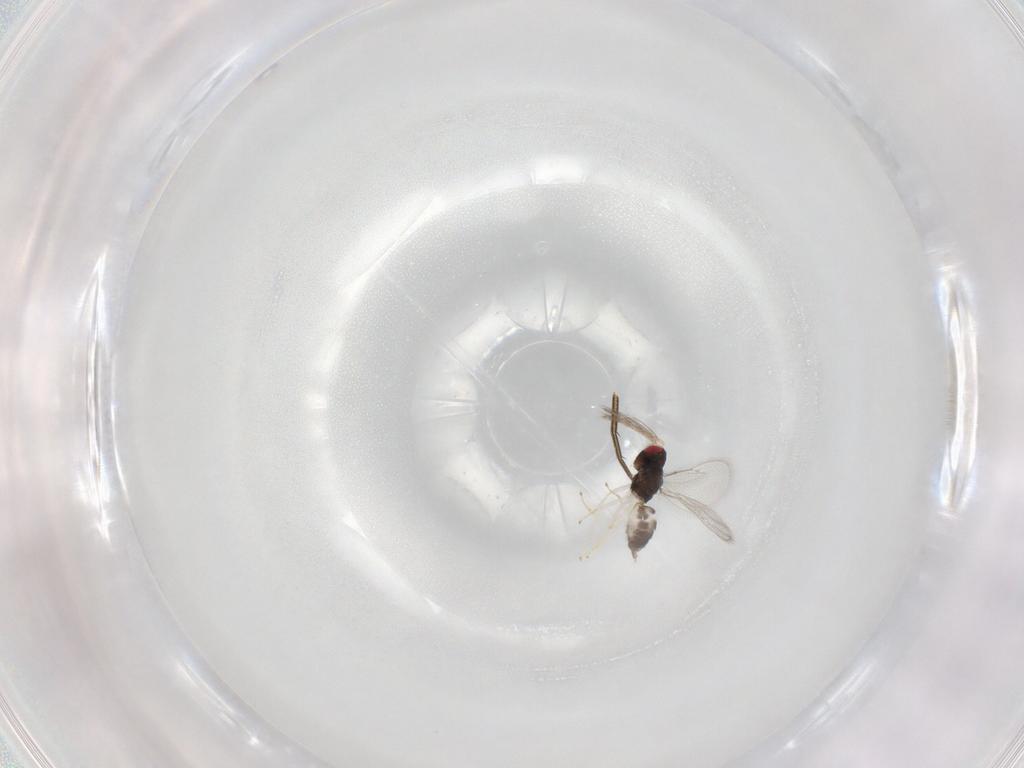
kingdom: Animalia
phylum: Arthropoda
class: Insecta
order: Hymenoptera
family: Eulophidae
